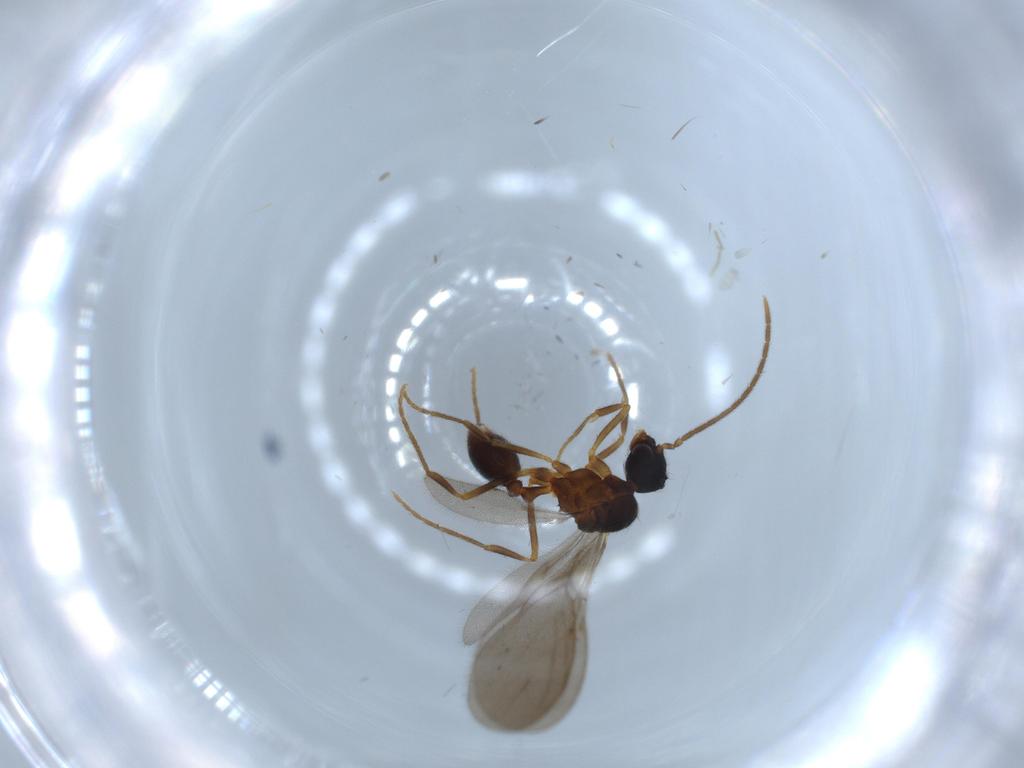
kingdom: Animalia
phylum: Arthropoda
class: Insecta
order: Hymenoptera
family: Formicidae
